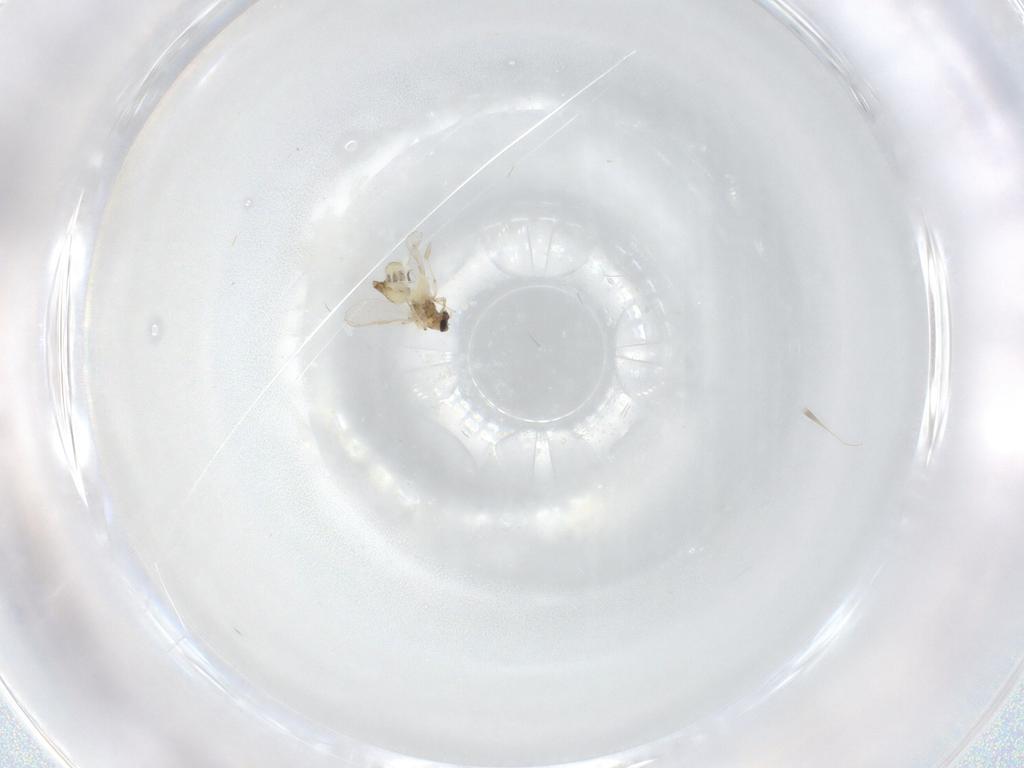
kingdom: Animalia
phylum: Arthropoda
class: Insecta
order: Diptera
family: Chironomidae
